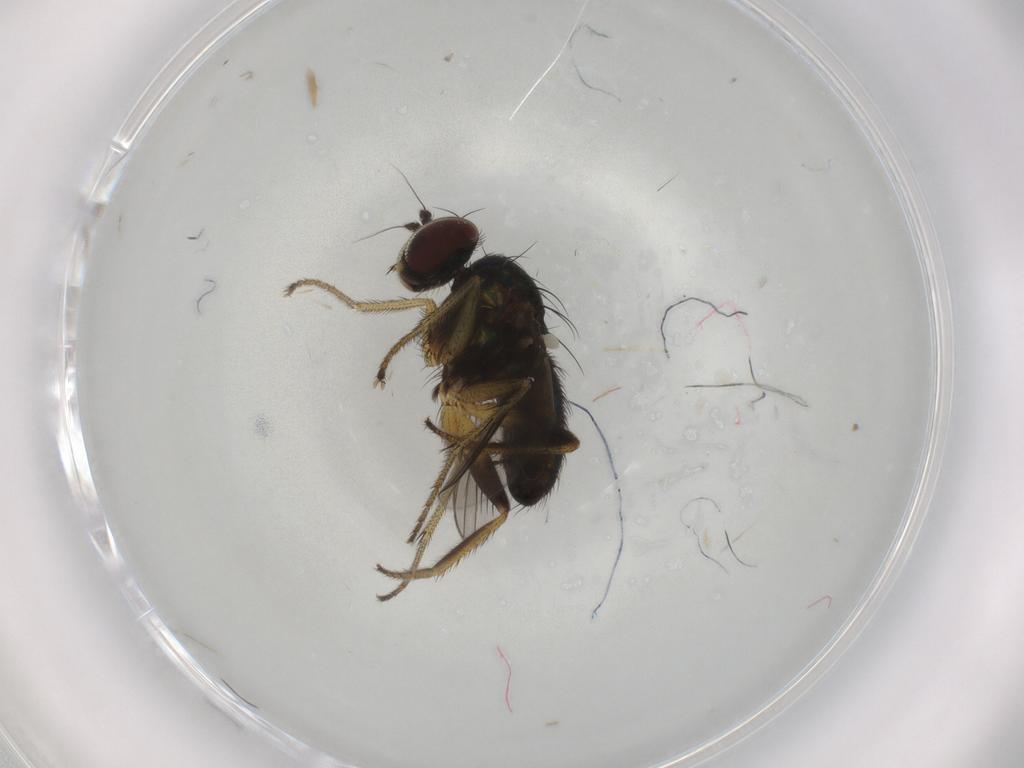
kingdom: Animalia
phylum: Arthropoda
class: Insecta
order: Diptera
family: Dolichopodidae
